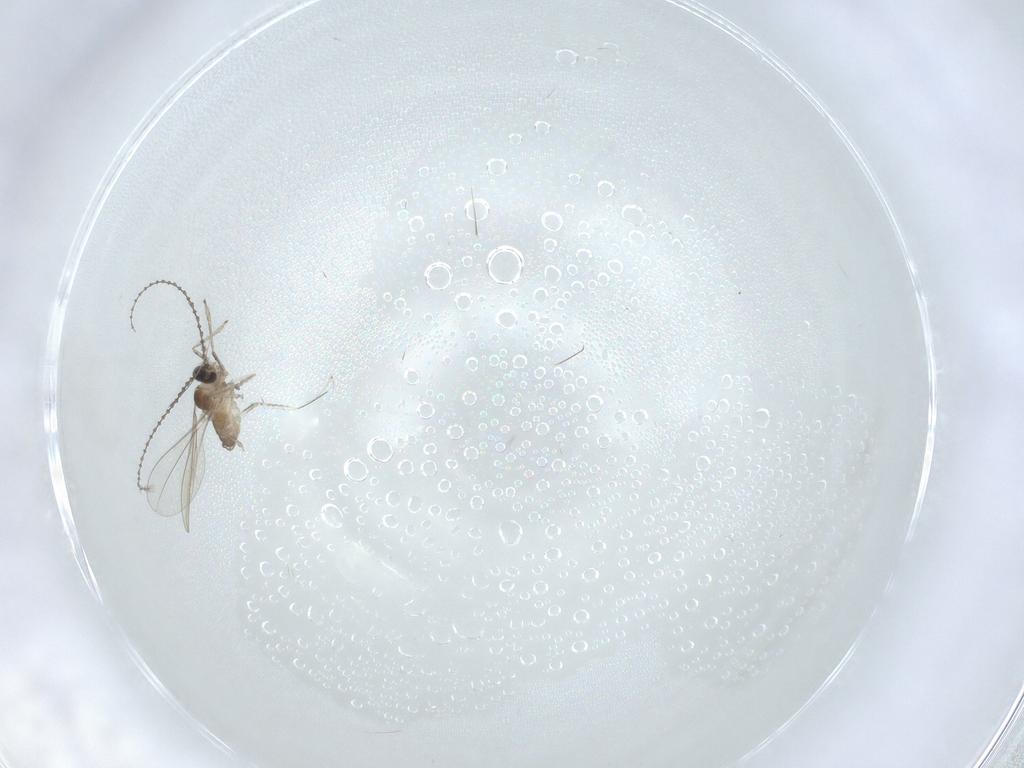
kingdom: Animalia
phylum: Arthropoda
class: Insecta
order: Diptera
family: Cecidomyiidae
